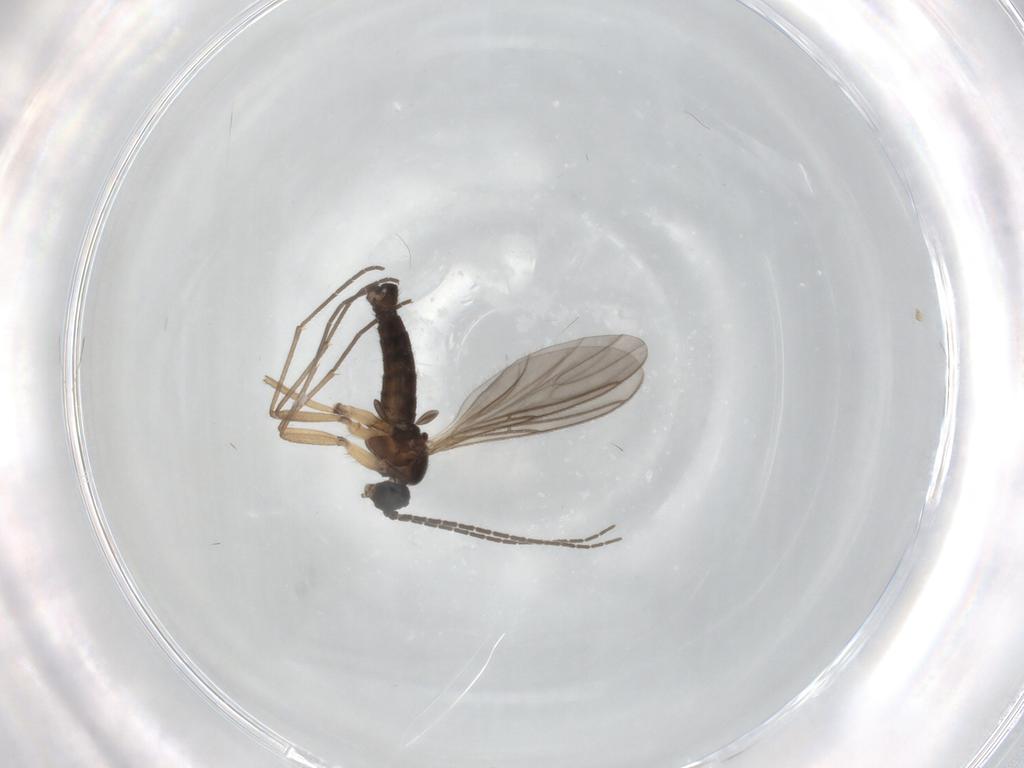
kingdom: Animalia
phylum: Arthropoda
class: Insecta
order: Diptera
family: Sciaridae
